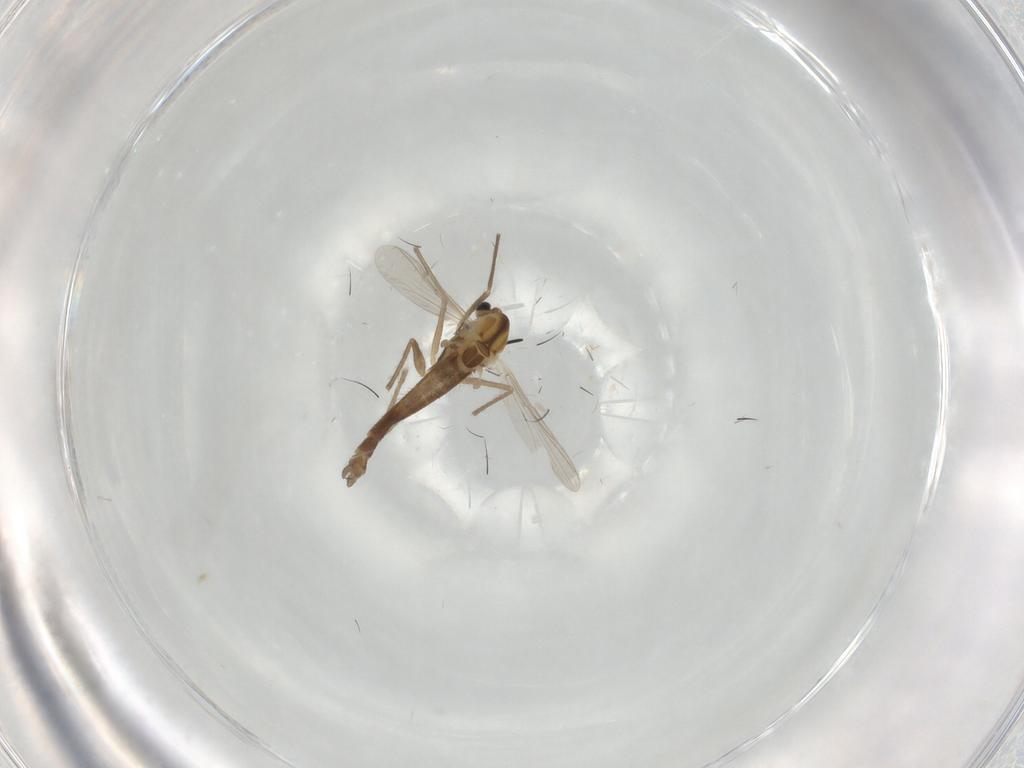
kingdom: Animalia
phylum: Arthropoda
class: Insecta
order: Diptera
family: Chironomidae
